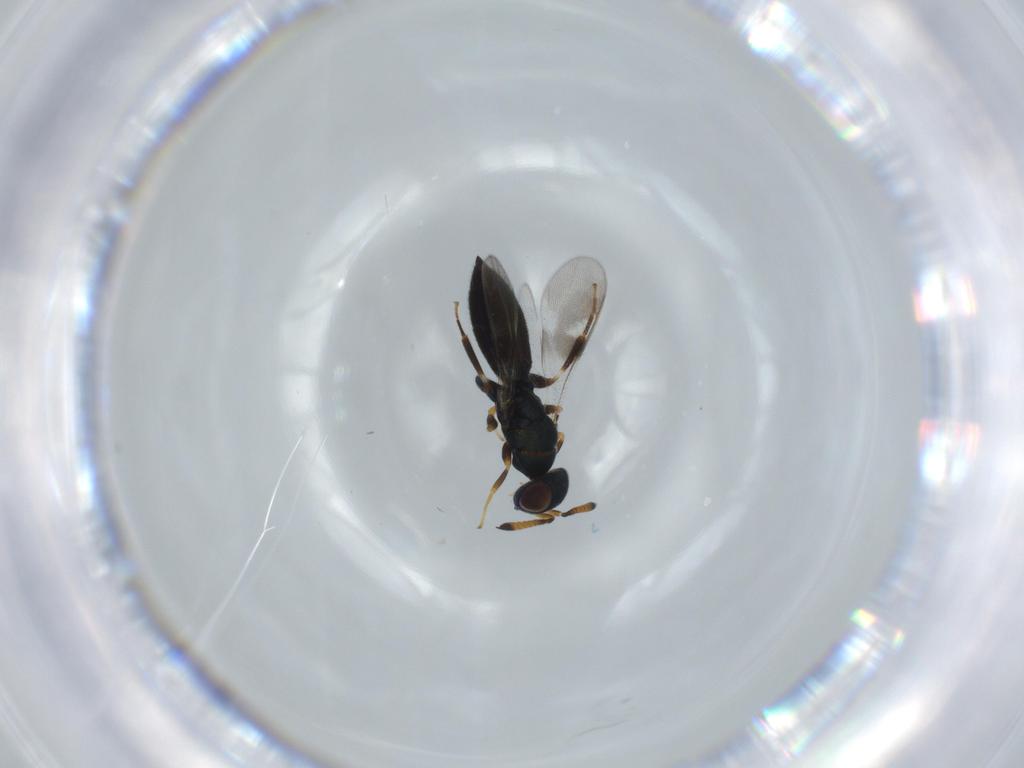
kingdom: Animalia
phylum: Arthropoda
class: Insecta
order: Hymenoptera
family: Cleonyminae
